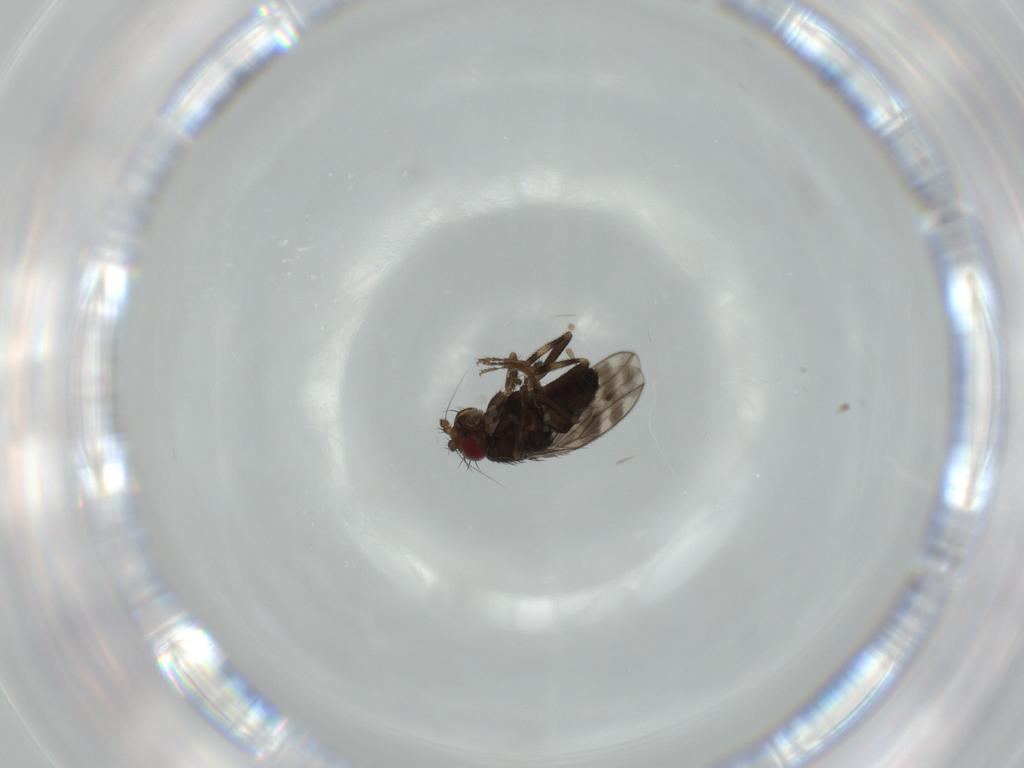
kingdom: Animalia
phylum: Arthropoda
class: Insecta
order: Diptera
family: Sphaeroceridae
